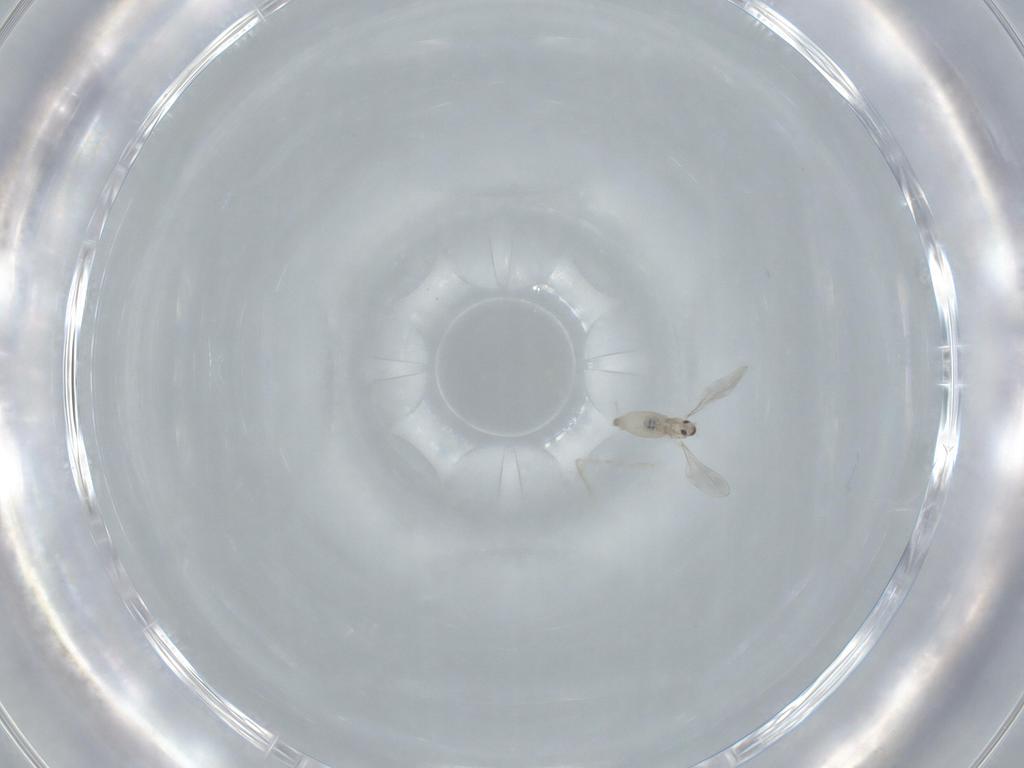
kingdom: Animalia
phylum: Arthropoda
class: Insecta
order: Diptera
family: Cecidomyiidae
